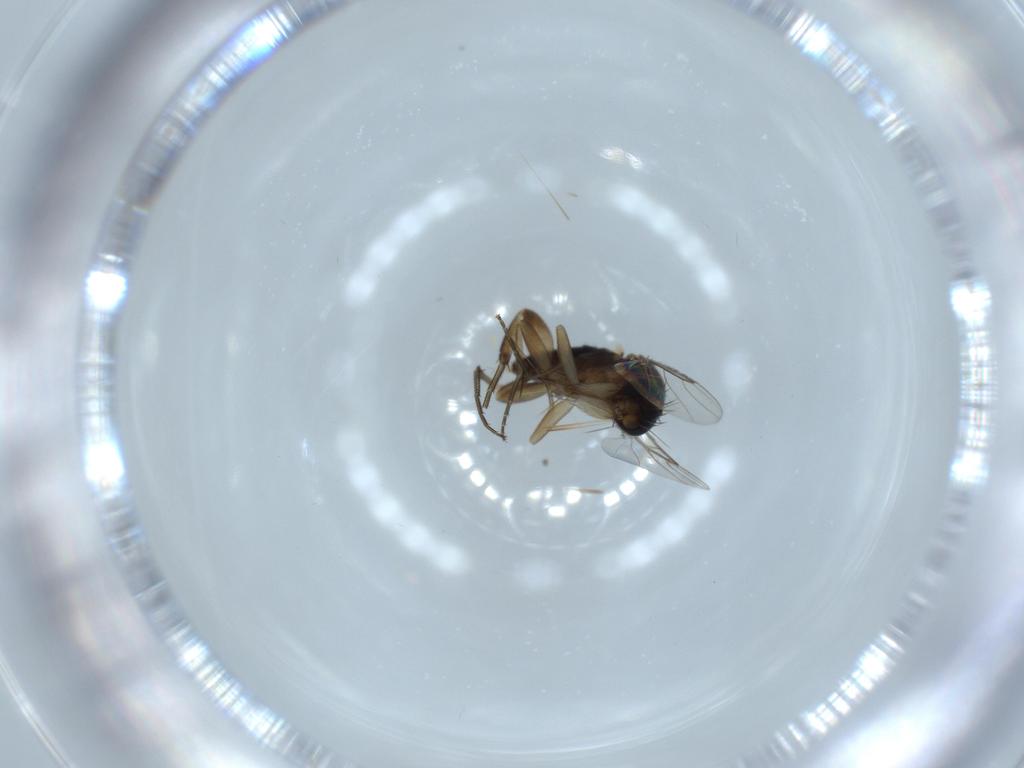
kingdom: Animalia
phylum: Arthropoda
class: Insecta
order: Diptera
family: Phoridae
